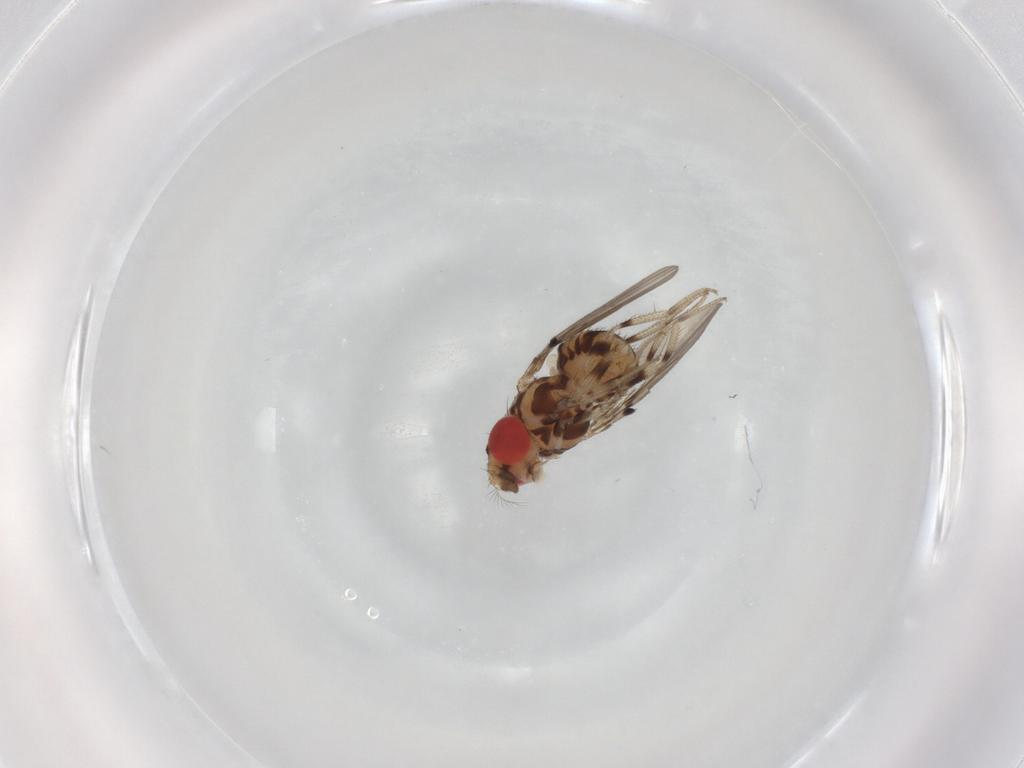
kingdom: Animalia
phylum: Arthropoda
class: Insecta
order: Diptera
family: Drosophilidae
